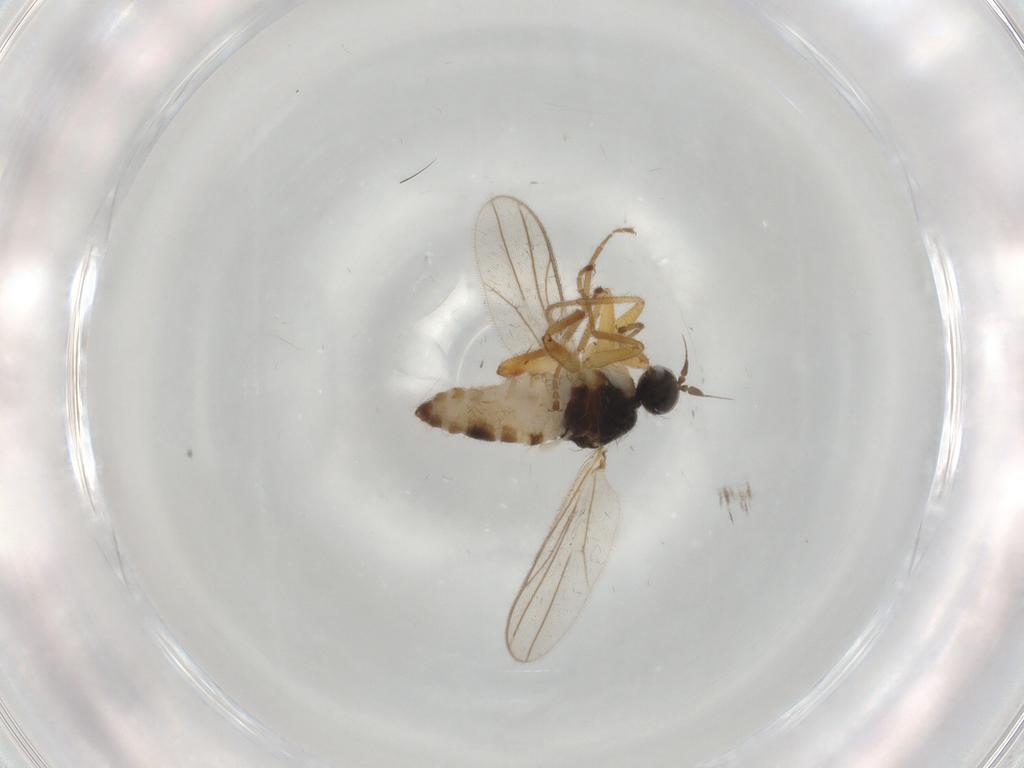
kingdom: Animalia
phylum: Arthropoda
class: Insecta
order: Diptera
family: Hybotidae
